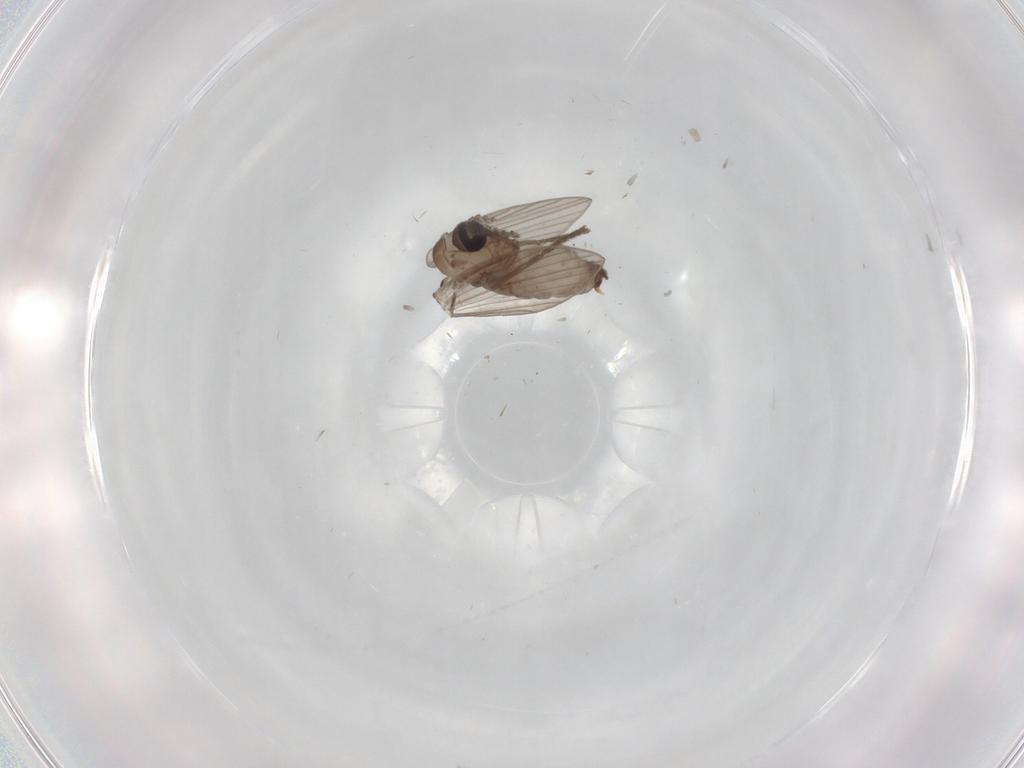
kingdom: Animalia
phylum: Arthropoda
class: Insecta
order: Diptera
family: Psychodidae
